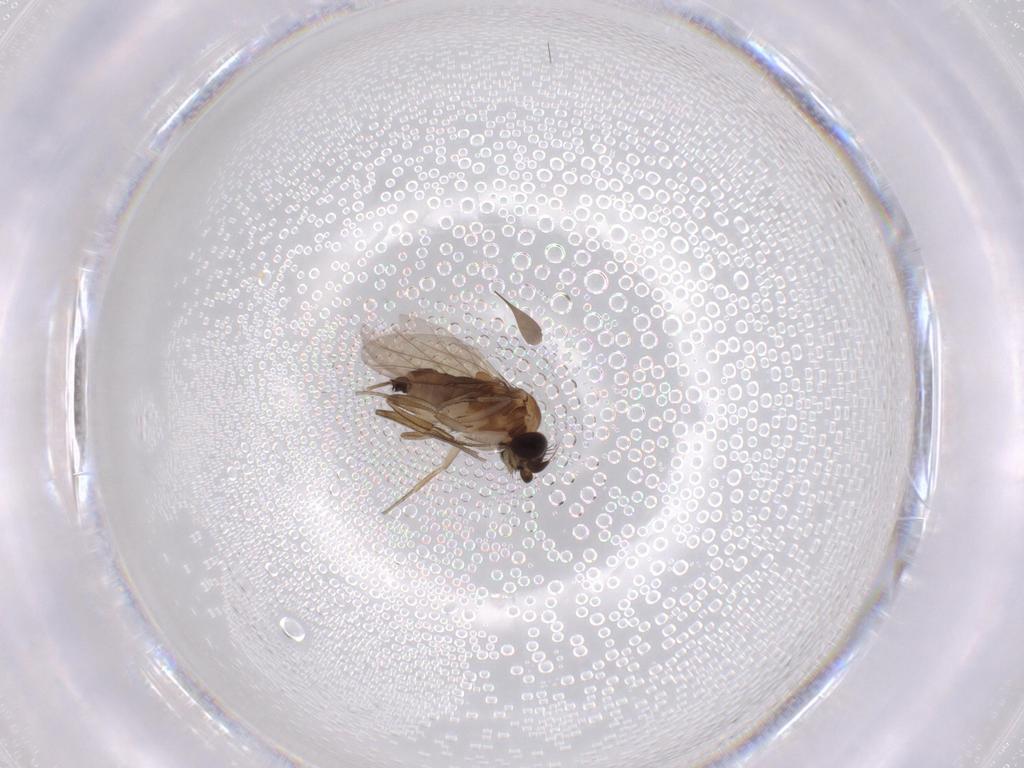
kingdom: Animalia
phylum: Arthropoda
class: Insecta
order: Diptera
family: Phoridae
